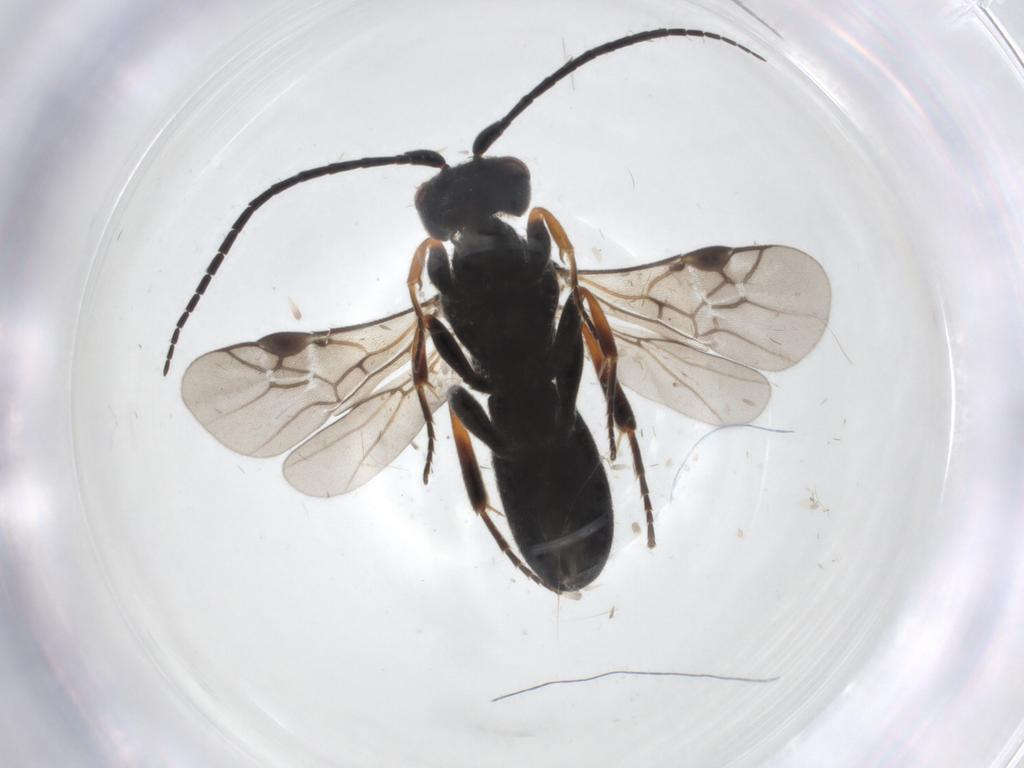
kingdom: Animalia
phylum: Arthropoda
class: Insecta
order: Hymenoptera
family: Braconidae
